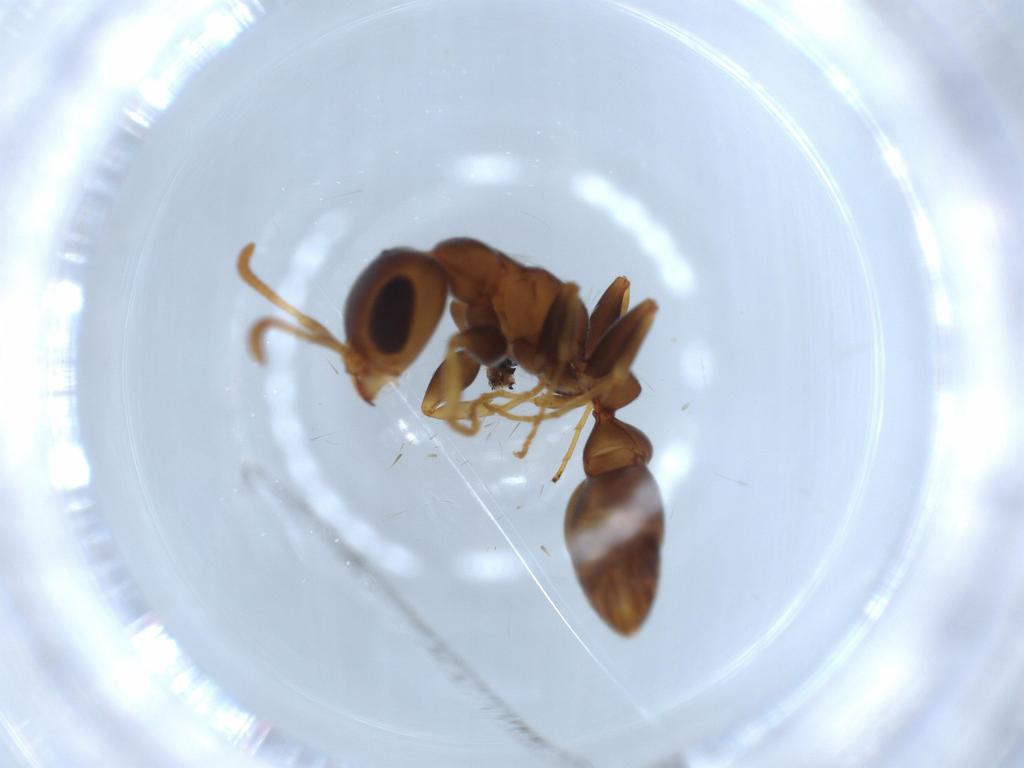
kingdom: Animalia
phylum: Arthropoda
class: Insecta
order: Hymenoptera
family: Formicidae
